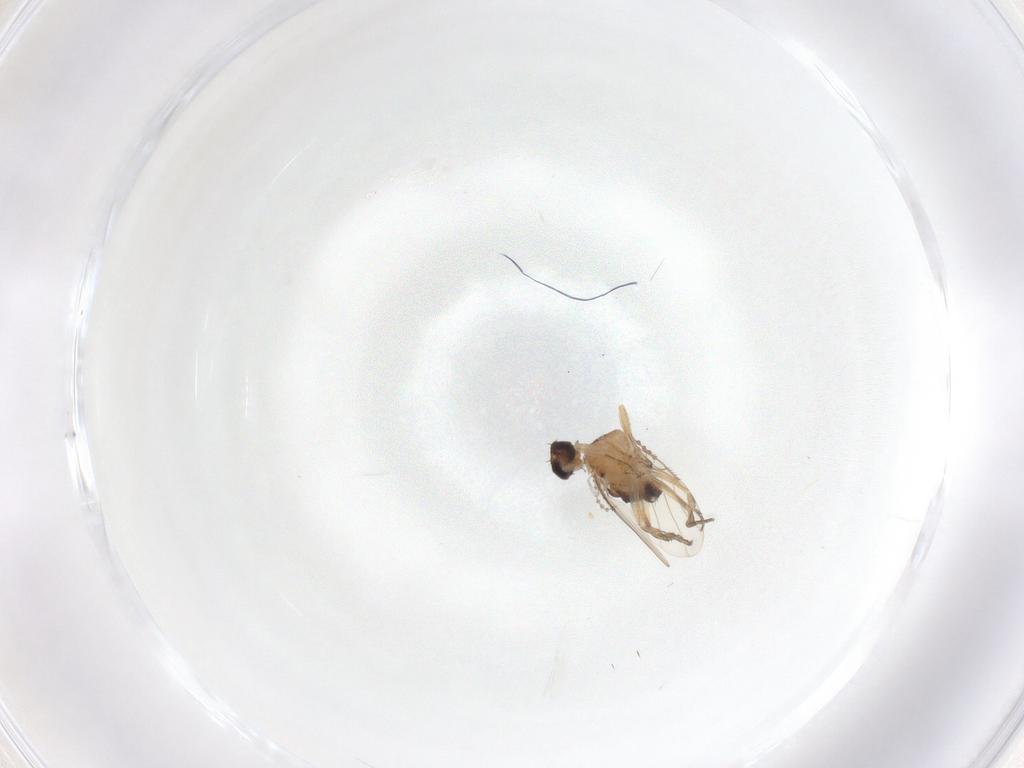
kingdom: Animalia
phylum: Arthropoda
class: Insecta
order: Diptera
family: Phoridae
